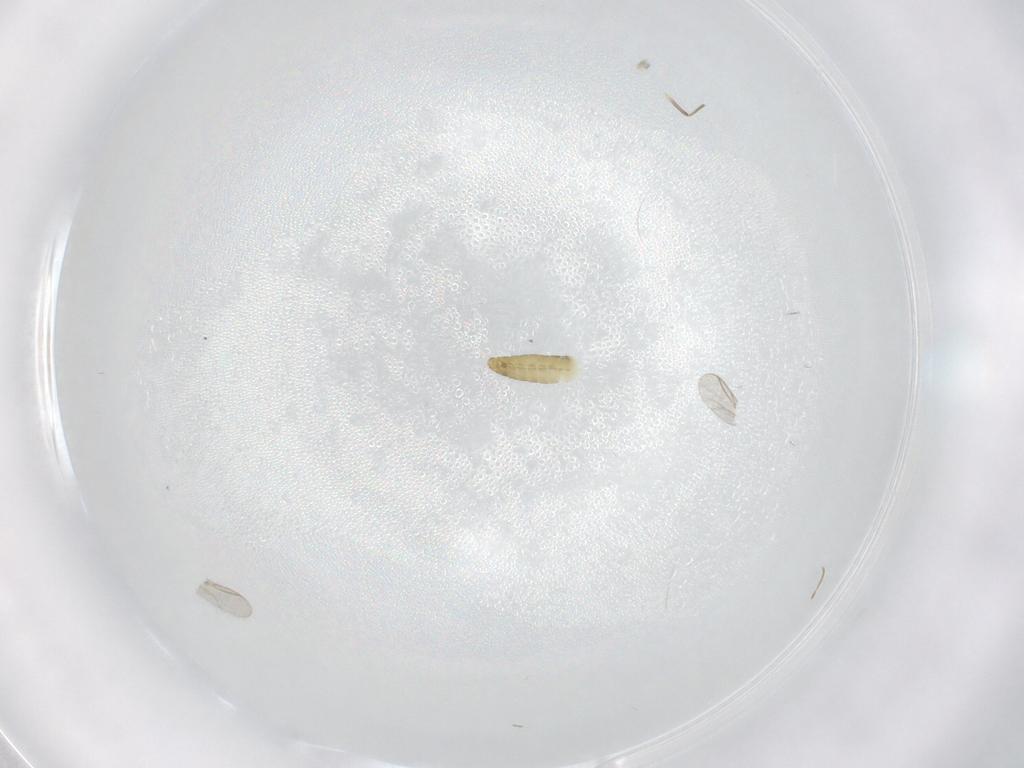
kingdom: Animalia
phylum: Arthropoda
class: Insecta
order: Diptera
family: Chironomidae
